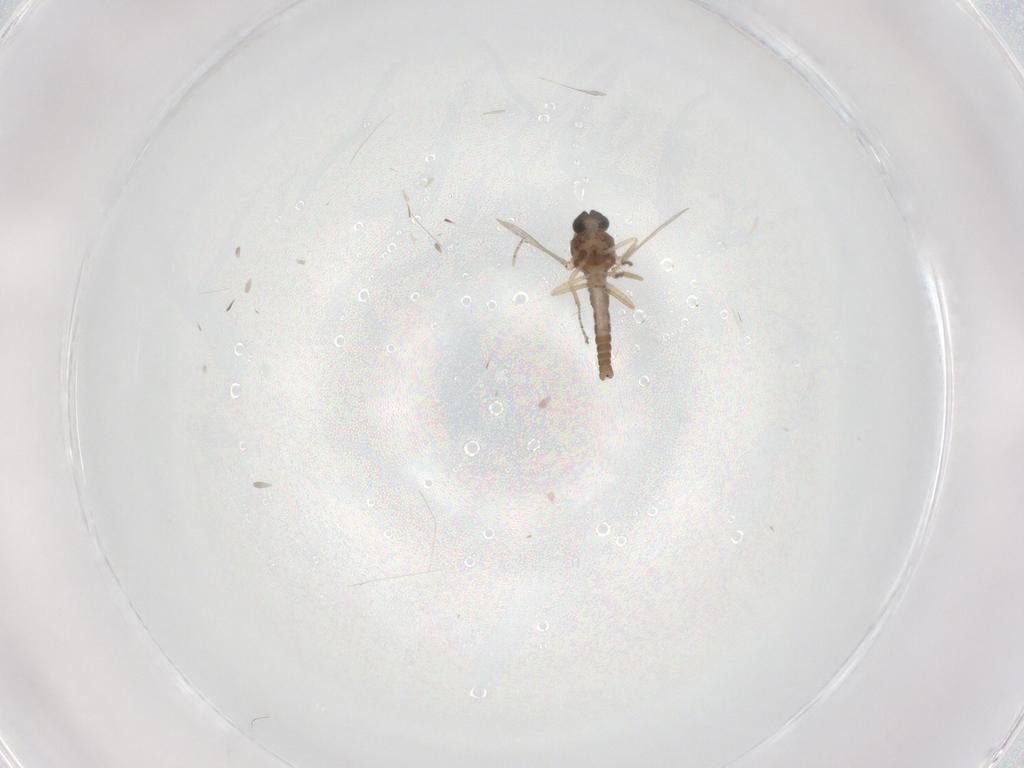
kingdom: Animalia
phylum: Arthropoda
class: Insecta
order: Diptera
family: Ceratopogonidae
